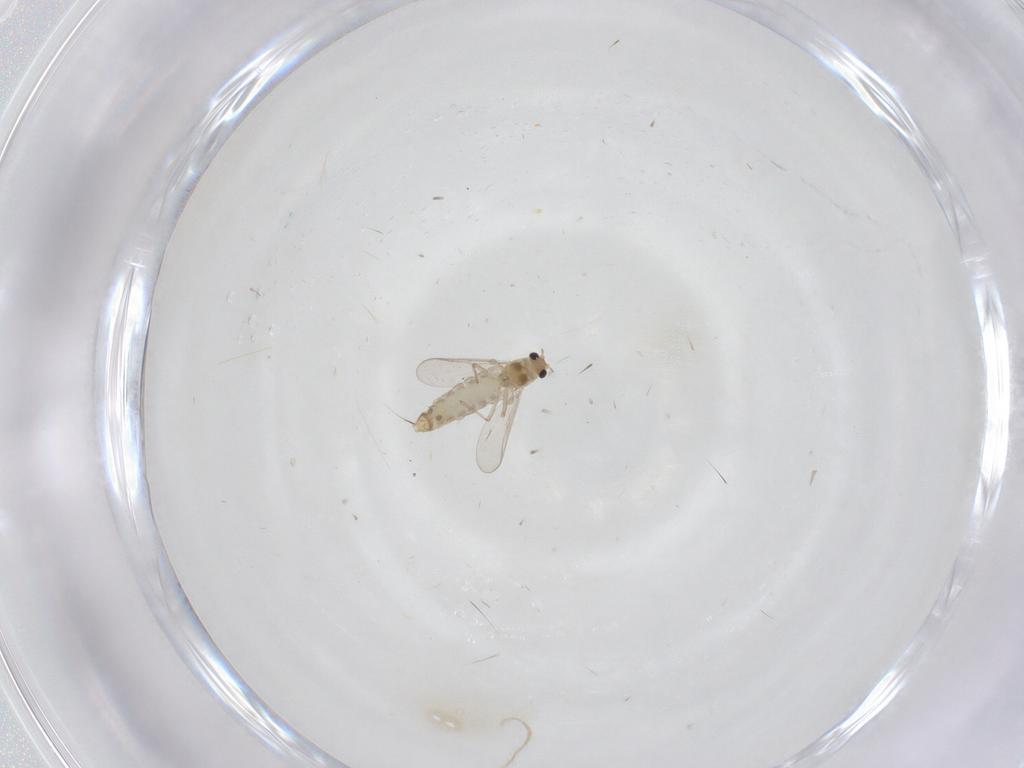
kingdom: Animalia
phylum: Arthropoda
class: Insecta
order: Diptera
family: Chironomidae
